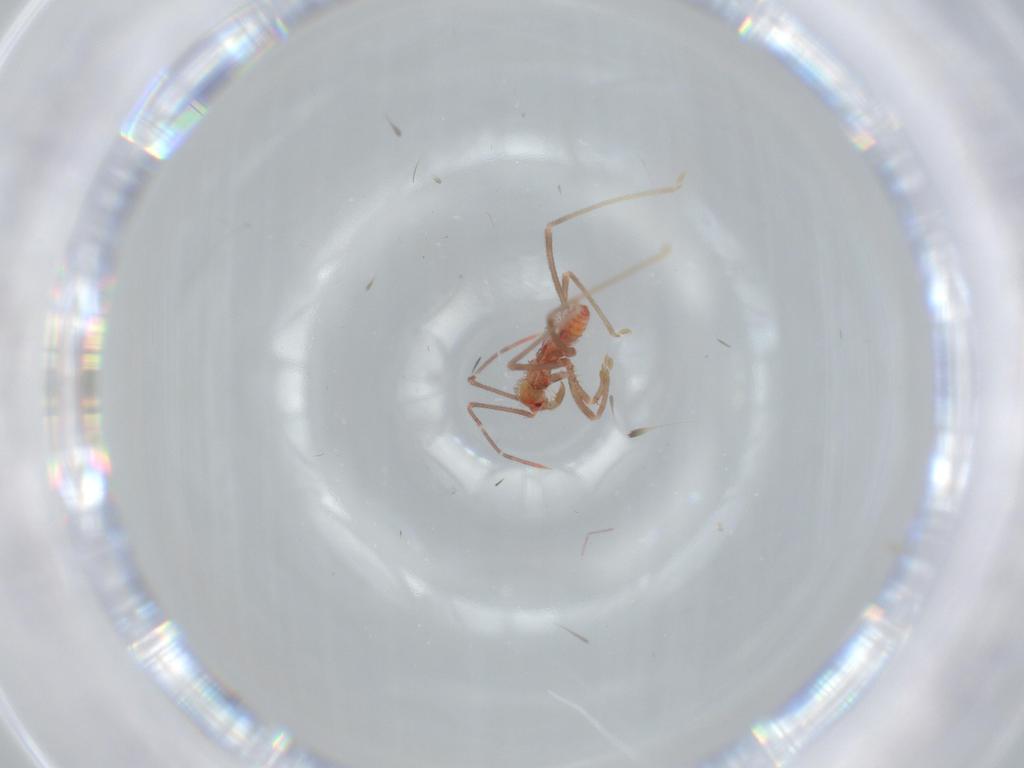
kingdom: Animalia
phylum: Arthropoda
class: Insecta
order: Hemiptera
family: Reduviidae
